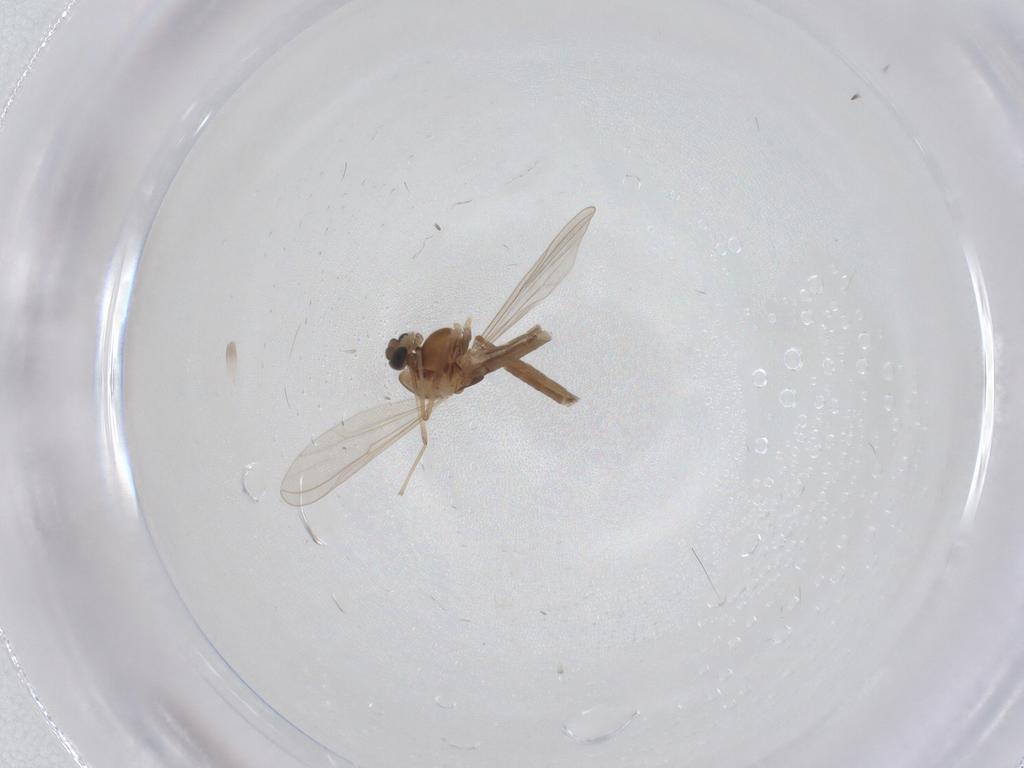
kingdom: Animalia
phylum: Arthropoda
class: Insecta
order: Diptera
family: Chironomidae
